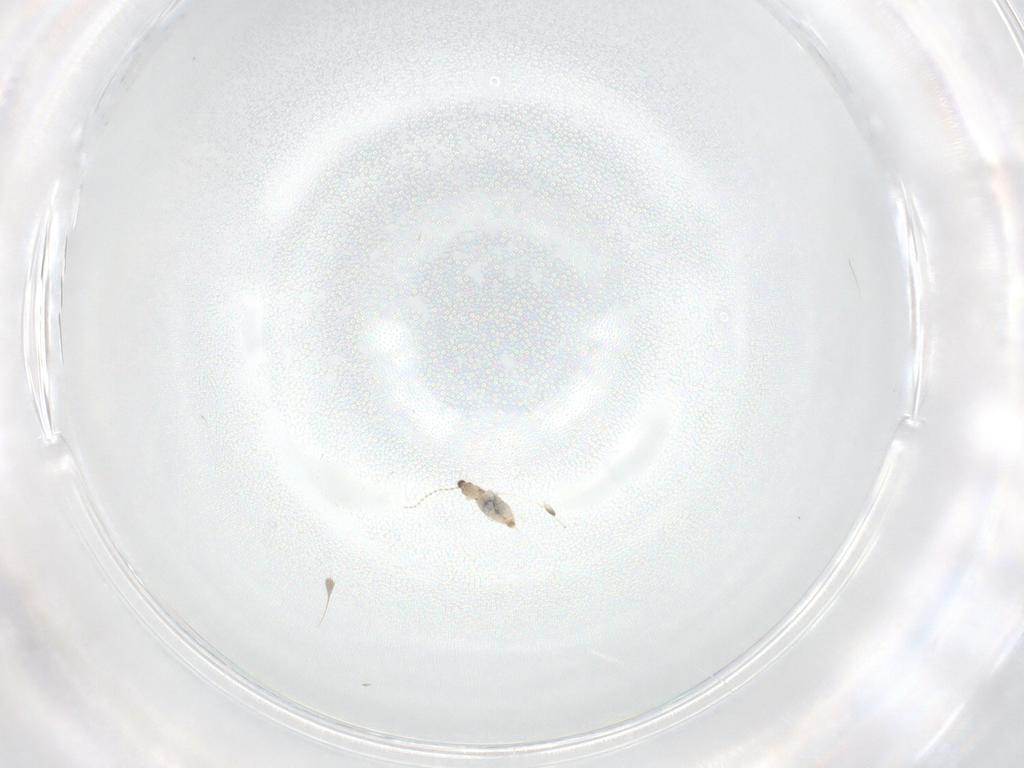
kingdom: Animalia
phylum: Arthropoda
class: Insecta
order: Diptera
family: Cecidomyiidae
